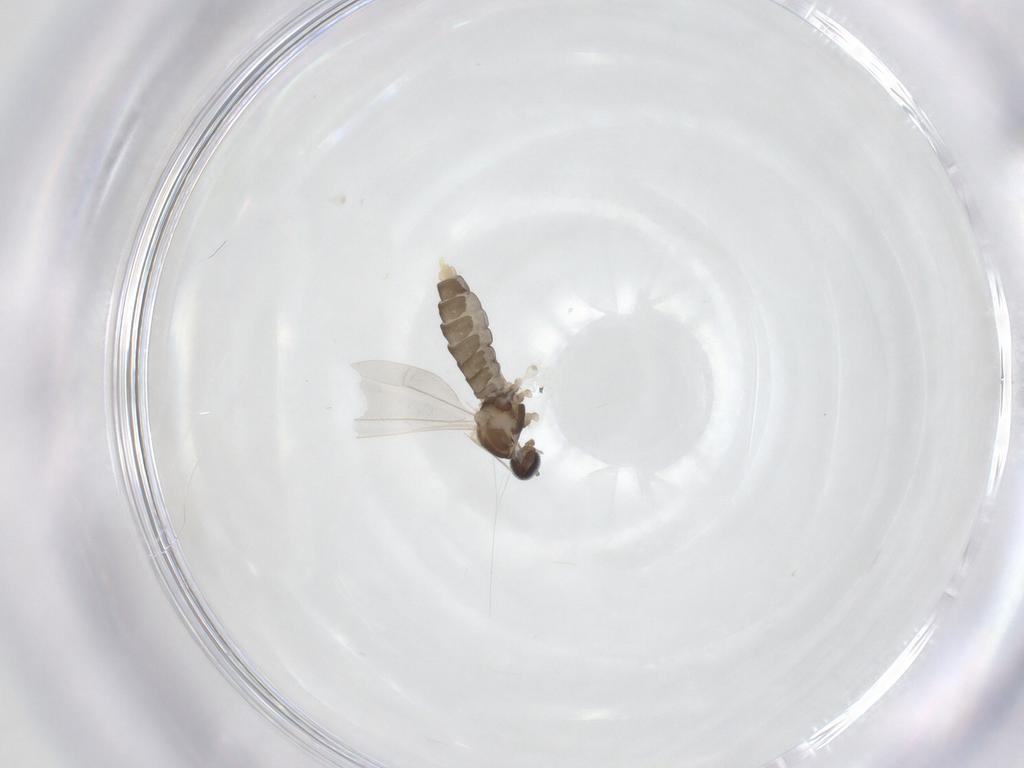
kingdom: Animalia
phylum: Arthropoda
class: Insecta
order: Diptera
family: Cecidomyiidae
